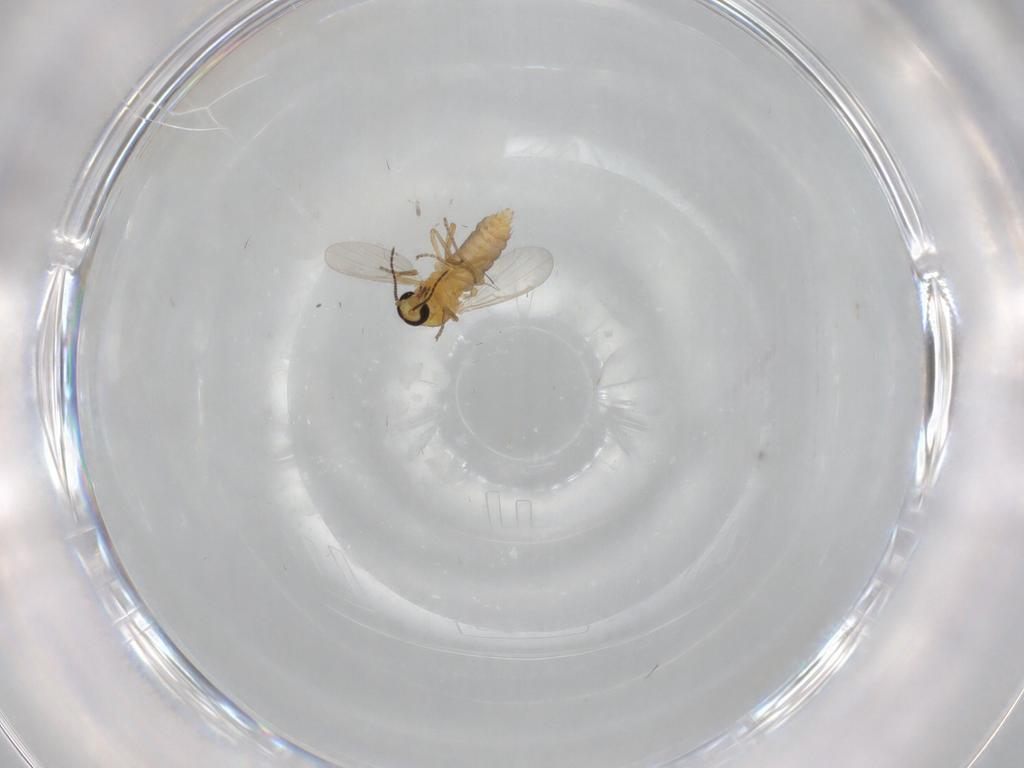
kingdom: Animalia
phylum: Arthropoda
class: Insecta
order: Diptera
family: Ceratopogonidae
